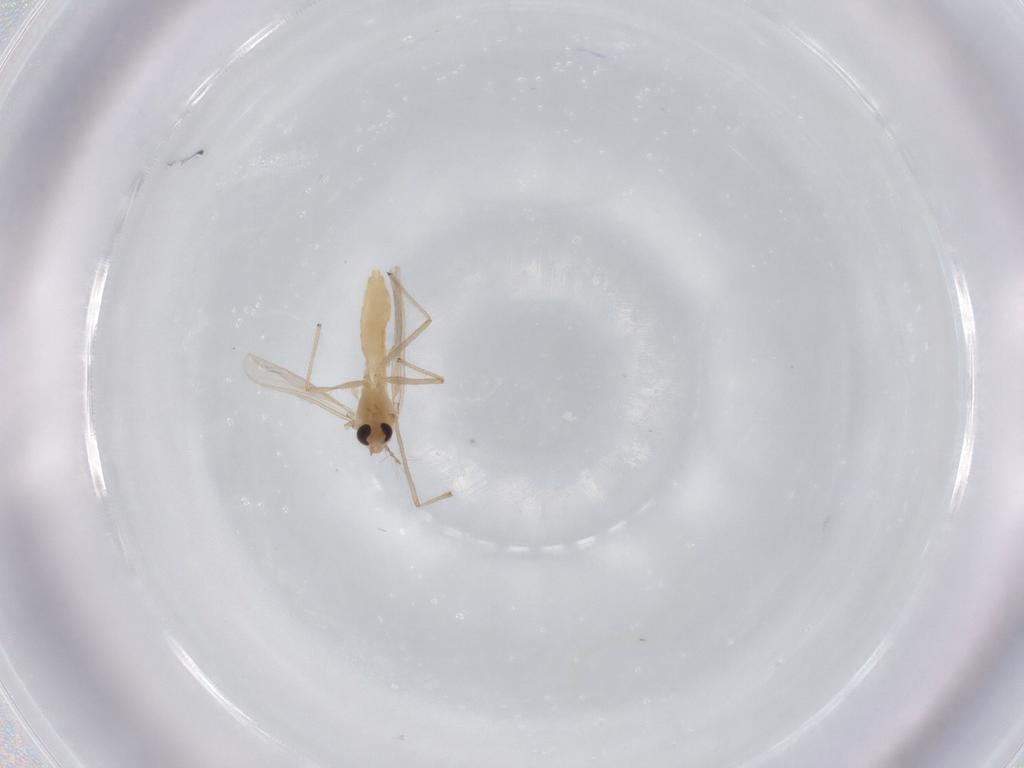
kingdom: Animalia
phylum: Arthropoda
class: Insecta
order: Diptera
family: Chironomidae
